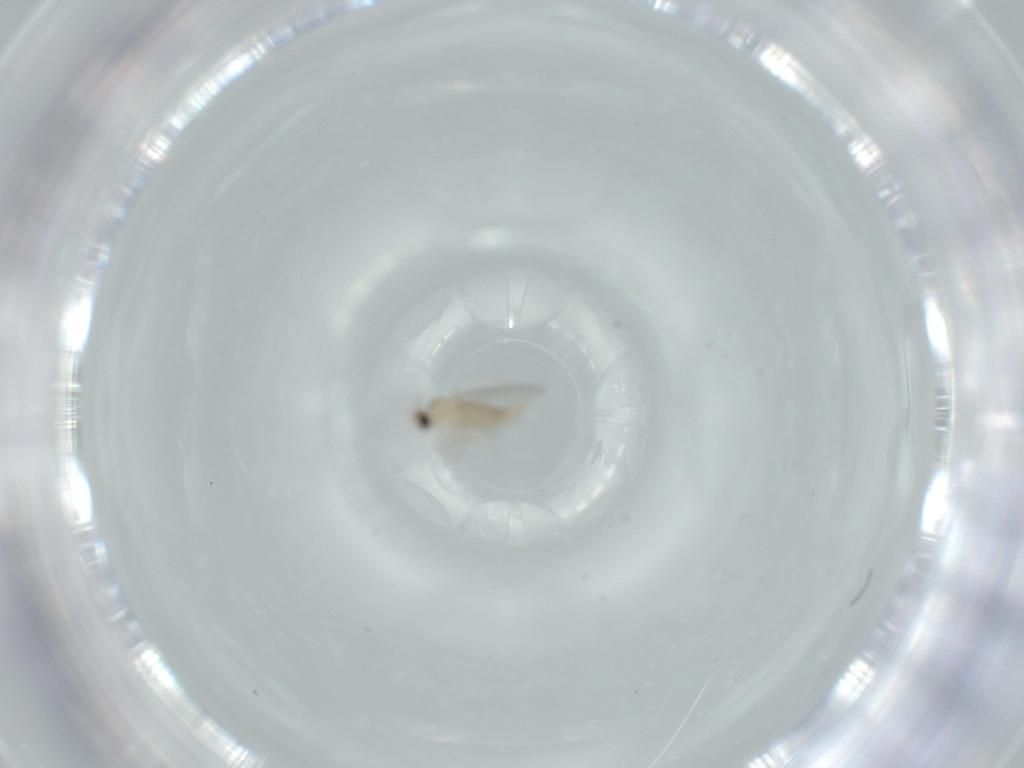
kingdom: Animalia
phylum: Arthropoda
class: Insecta
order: Diptera
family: Cecidomyiidae
